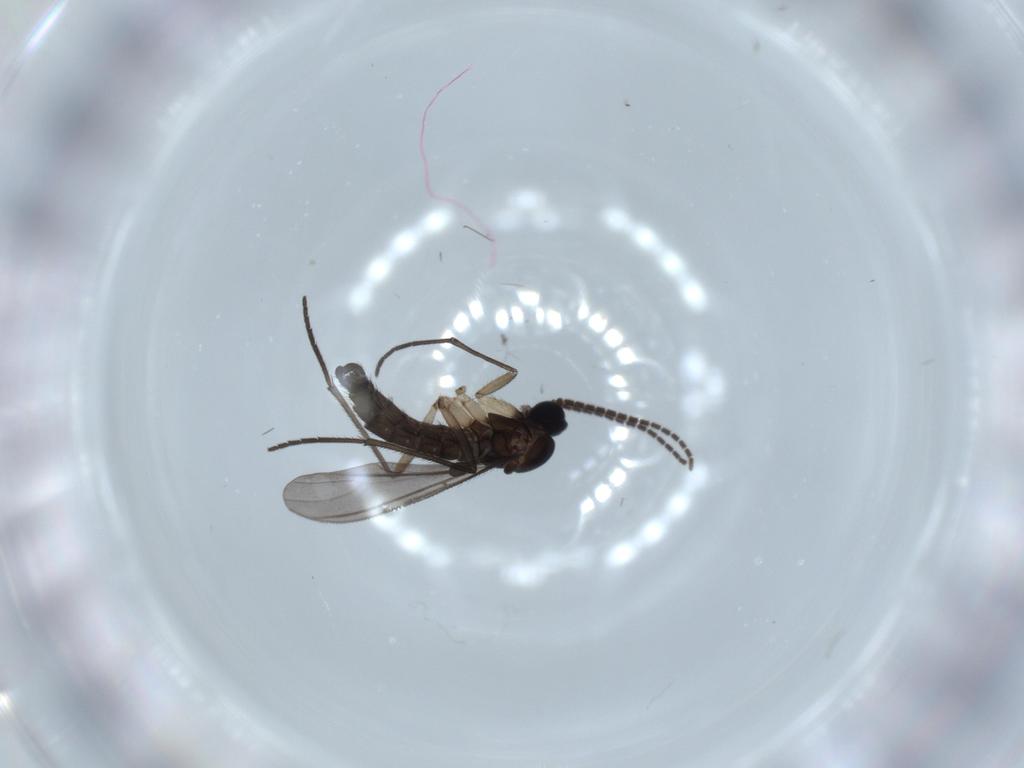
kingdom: Animalia
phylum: Arthropoda
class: Insecta
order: Diptera
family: Sciaridae
